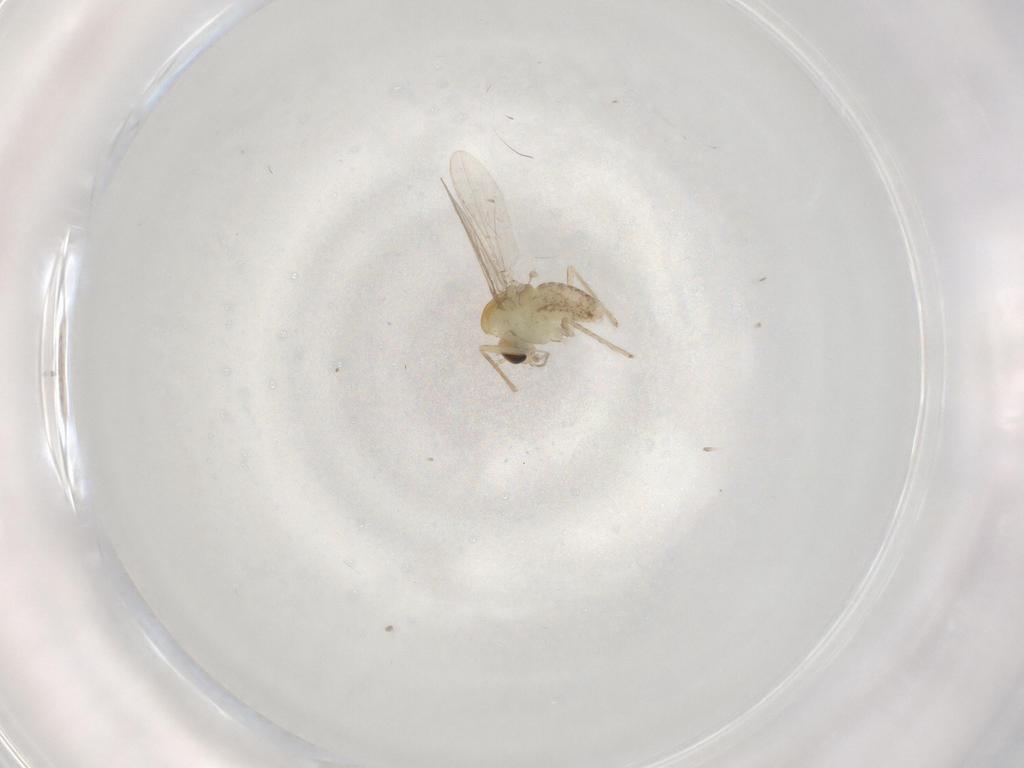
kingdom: Animalia
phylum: Arthropoda
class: Insecta
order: Diptera
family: Chironomidae
